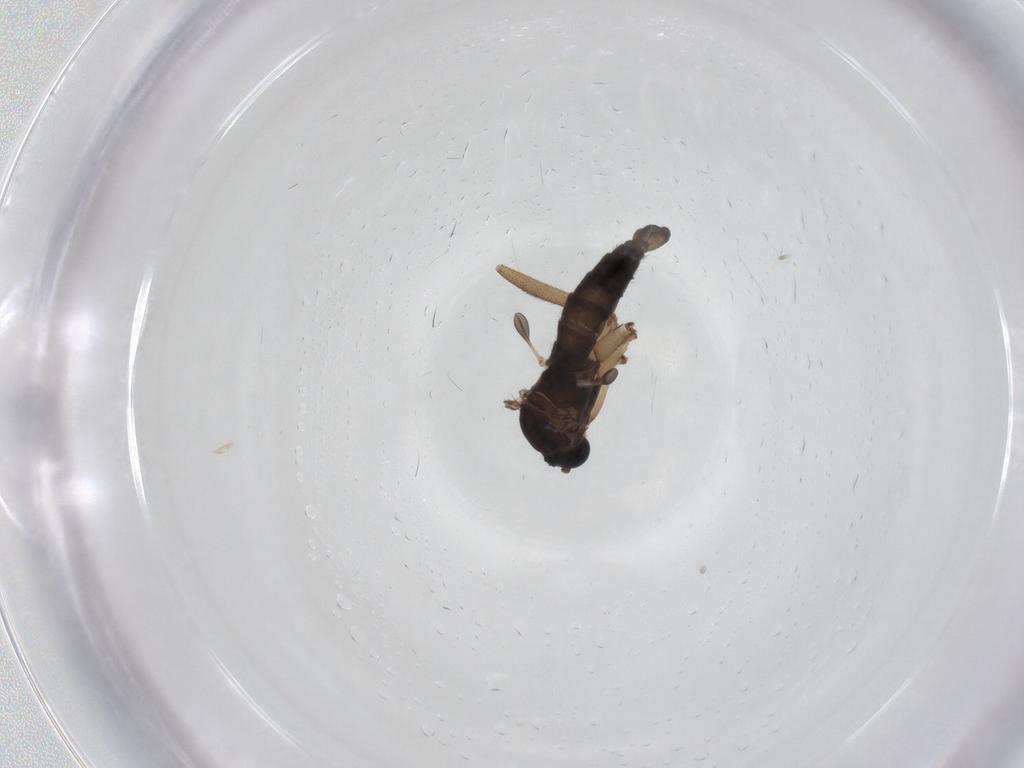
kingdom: Animalia
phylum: Arthropoda
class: Insecta
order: Diptera
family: Sciaridae
